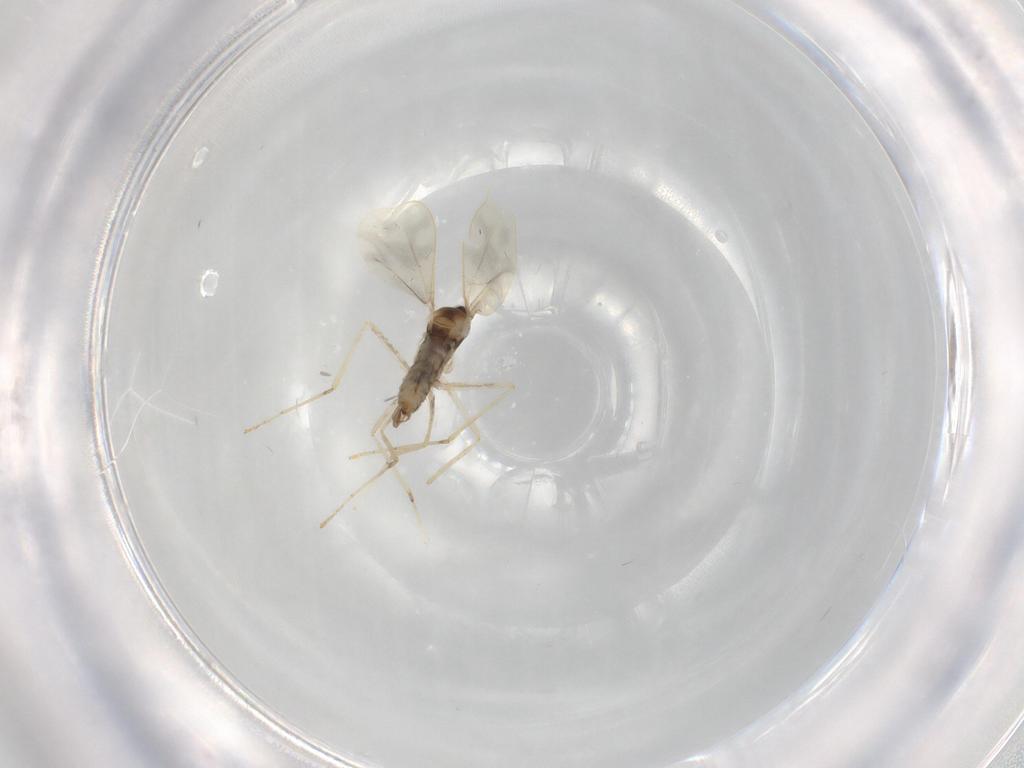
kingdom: Animalia
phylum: Arthropoda
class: Insecta
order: Diptera
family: Cecidomyiidae
